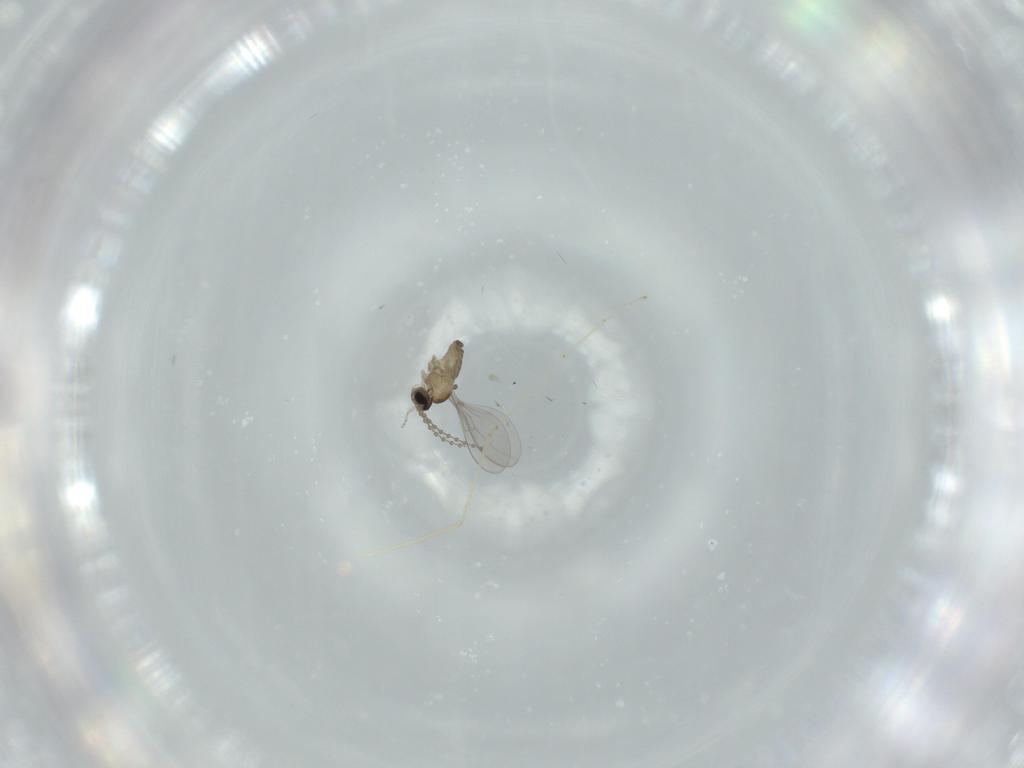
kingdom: Animalia
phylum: Arthropoda
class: Insecta
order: Diptera
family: Cecidomyiidae
